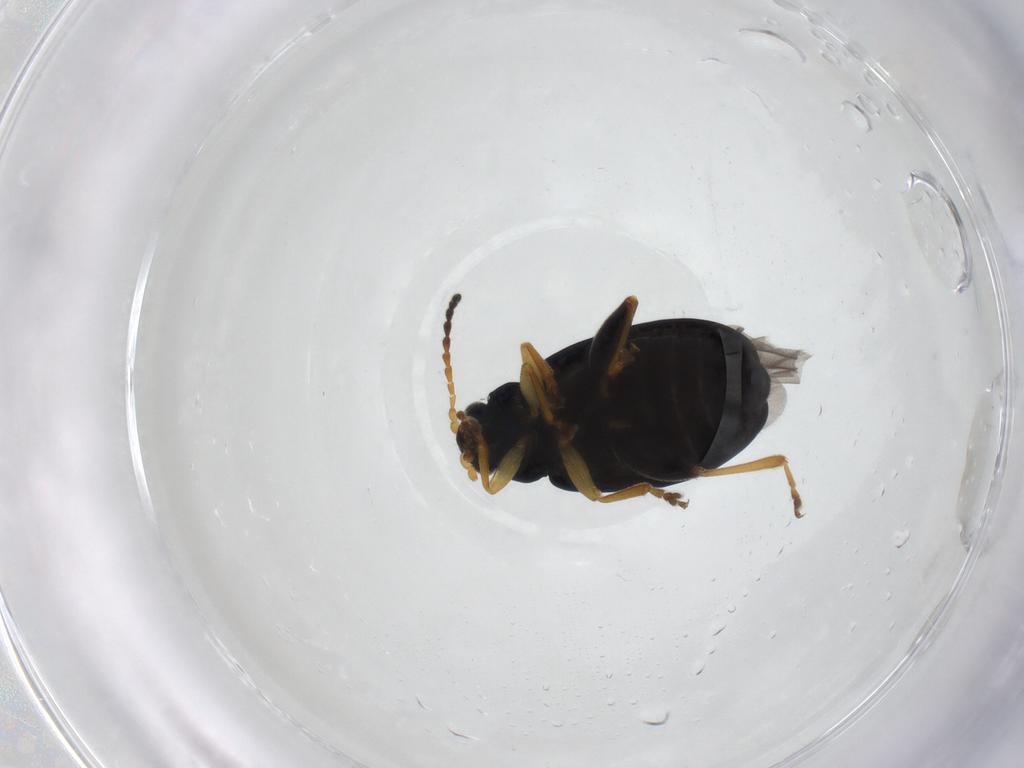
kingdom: Animalia
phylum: Arthropoda
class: Insecta
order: Coleoptera
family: Chrysomelidae
